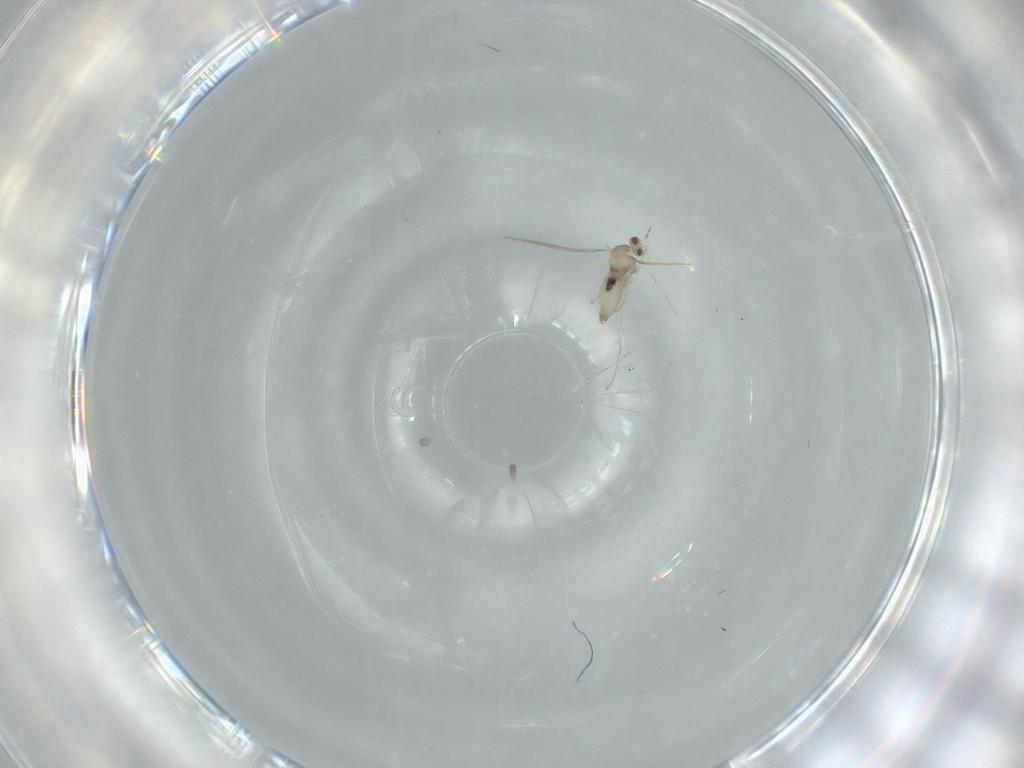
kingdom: Animalia
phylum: Arthropoda
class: Insecta
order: Diptera
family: Cecidomyiidae
